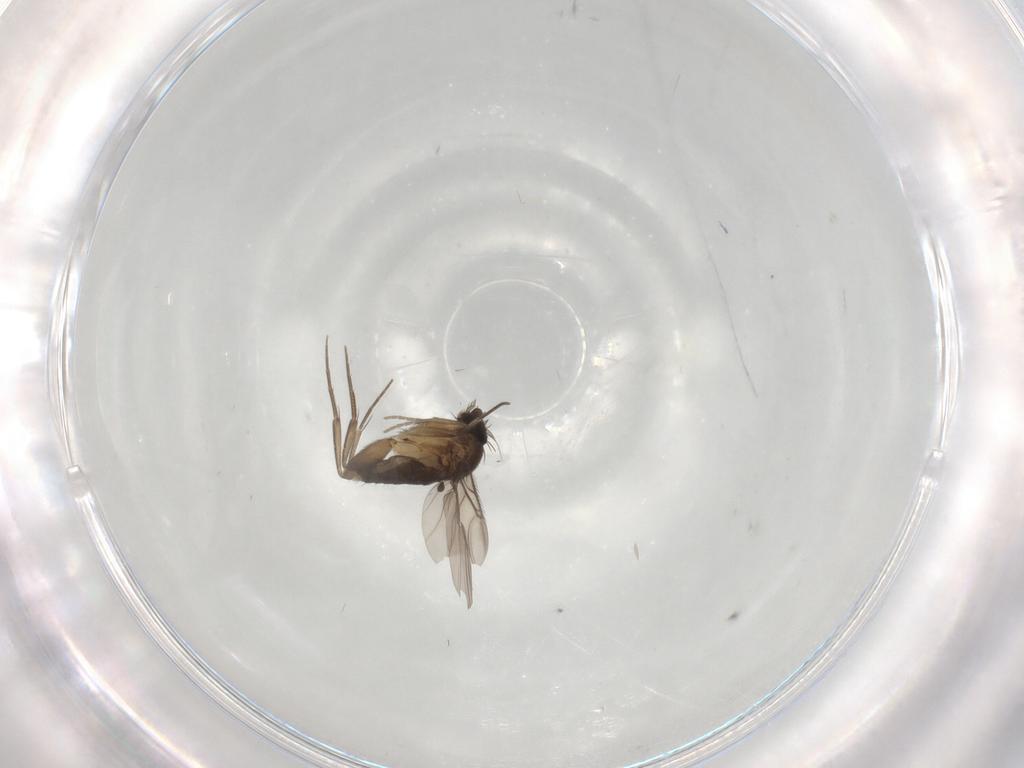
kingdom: Animalia
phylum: Arthropoda
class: Insecta
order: Diptera
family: Phoridae
